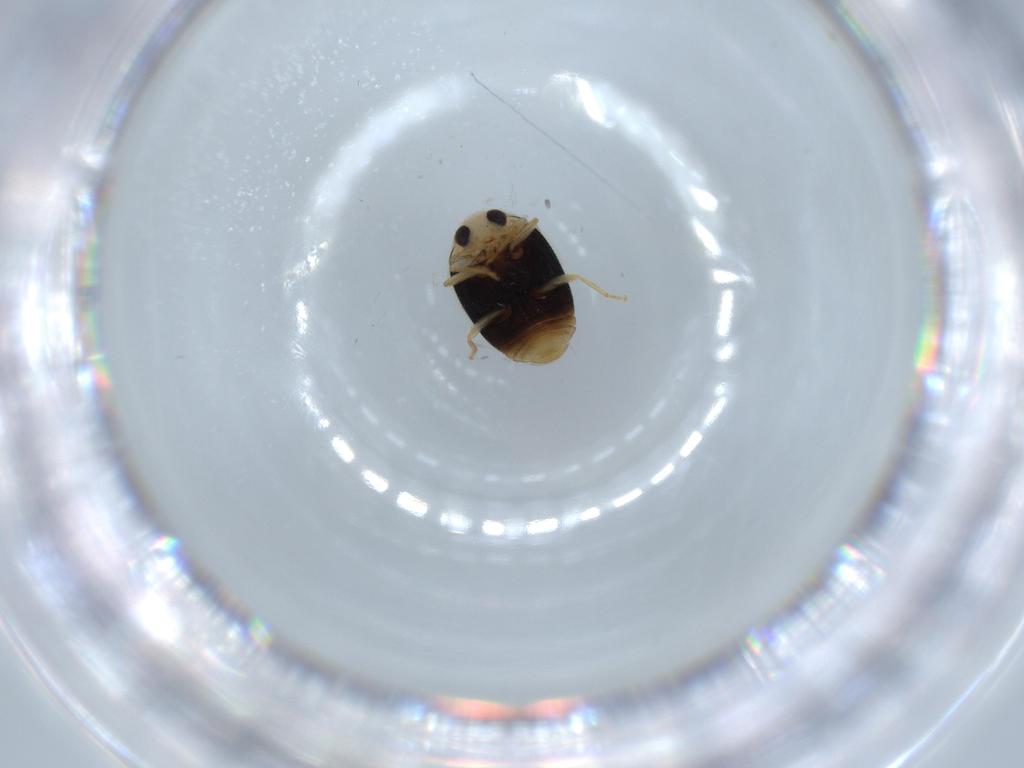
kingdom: Animalia
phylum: Arthropoda
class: Insecta
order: Coleoptera
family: Coccinellidae
